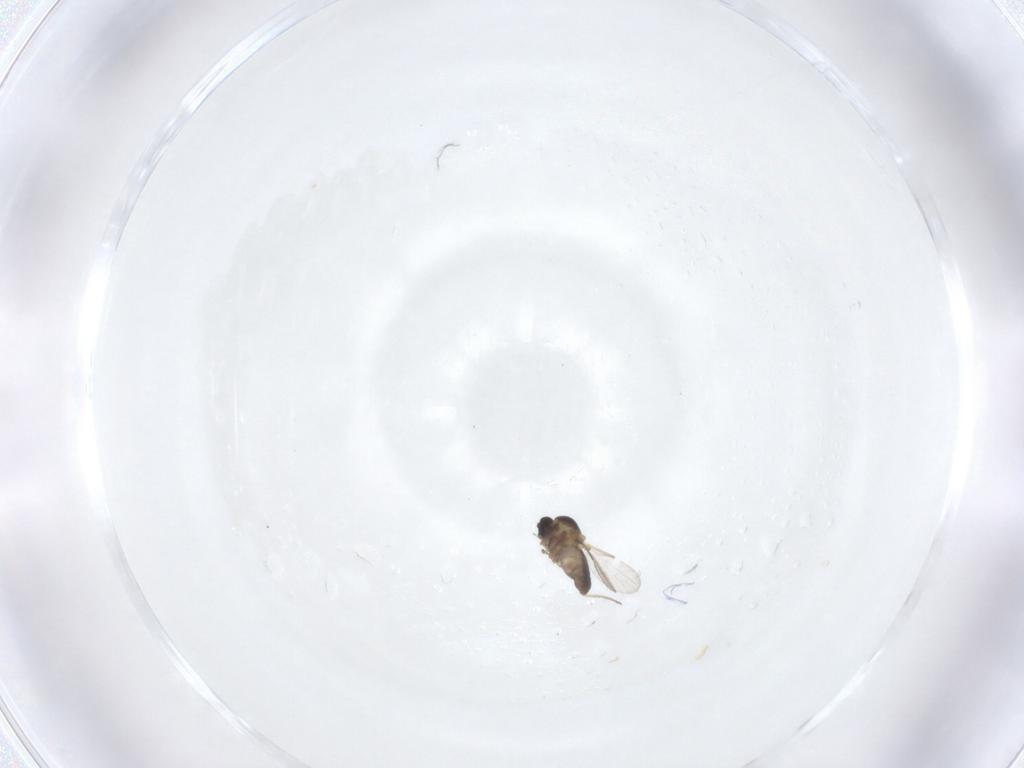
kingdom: Animalia
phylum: Arthropoda
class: Insecta
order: Diptera
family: Ceratopogonidae
